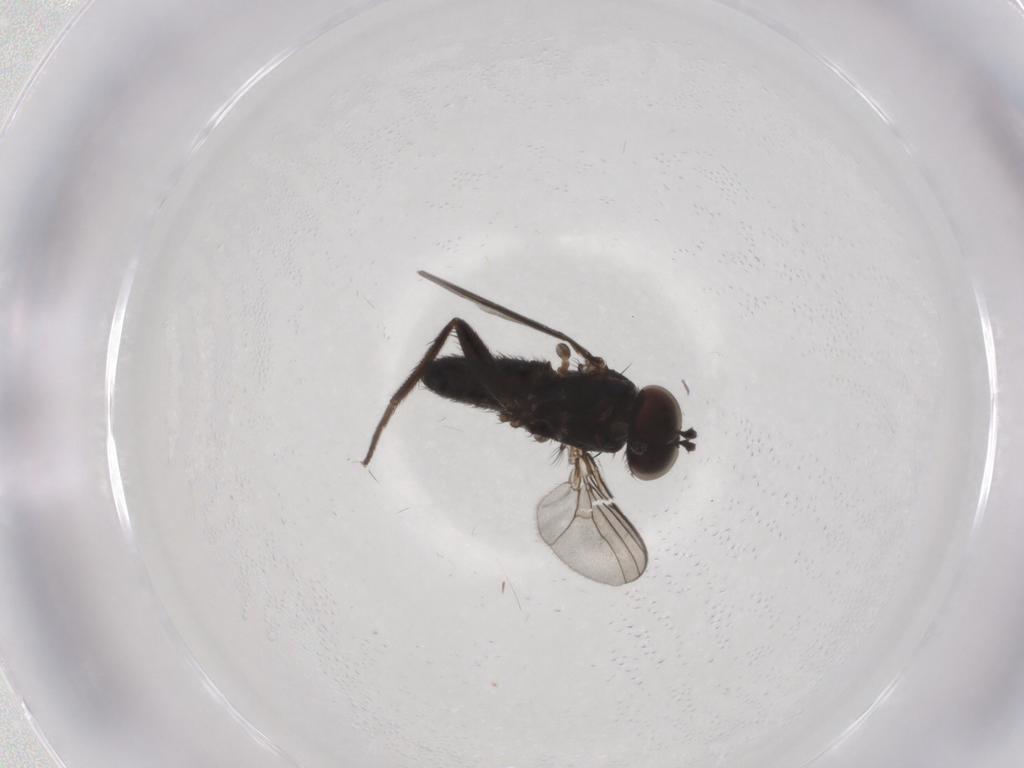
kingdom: Animalia
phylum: Arthropoda
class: Insecta
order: Diptera
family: Dolichopodidae
